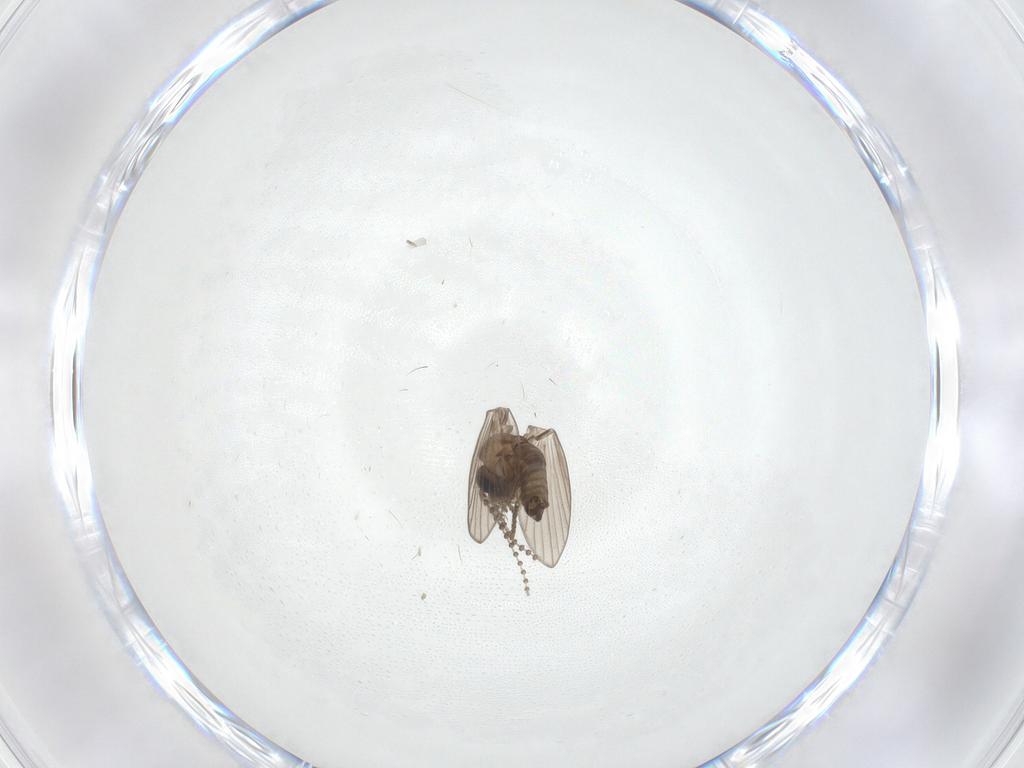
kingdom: Animalia
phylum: Arthropoda
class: Insecta
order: Diptera
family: Psychodidae
